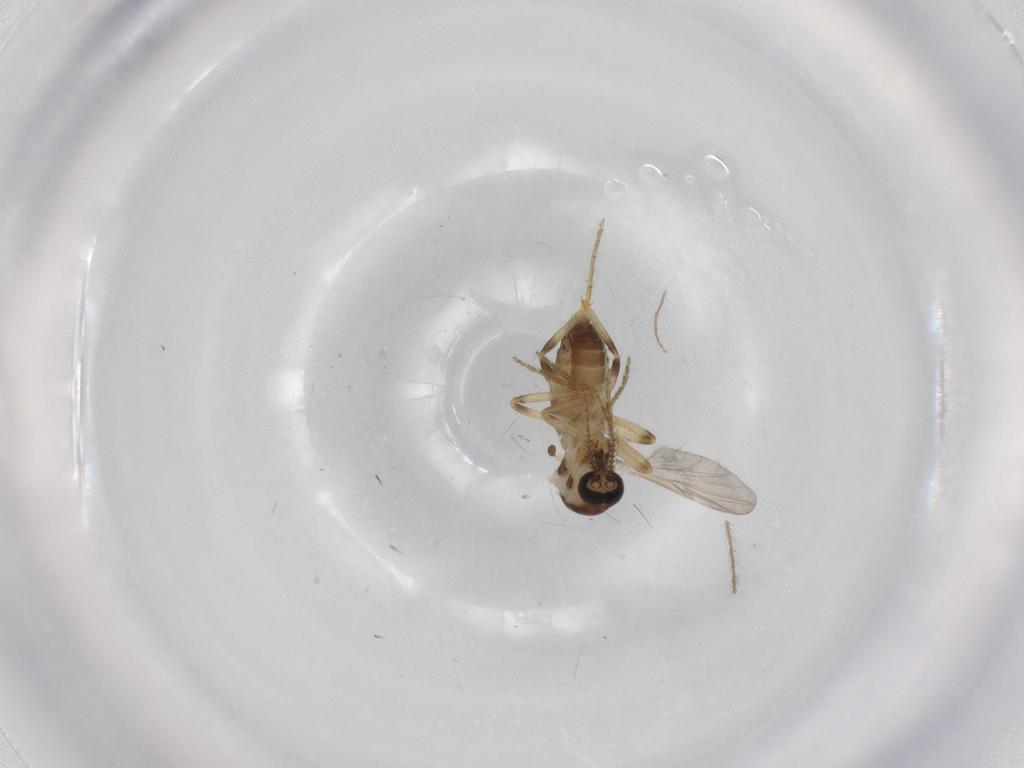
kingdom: Animalia
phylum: Arthropoda
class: Insecta
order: Diptera
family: Ceratopogonidae
